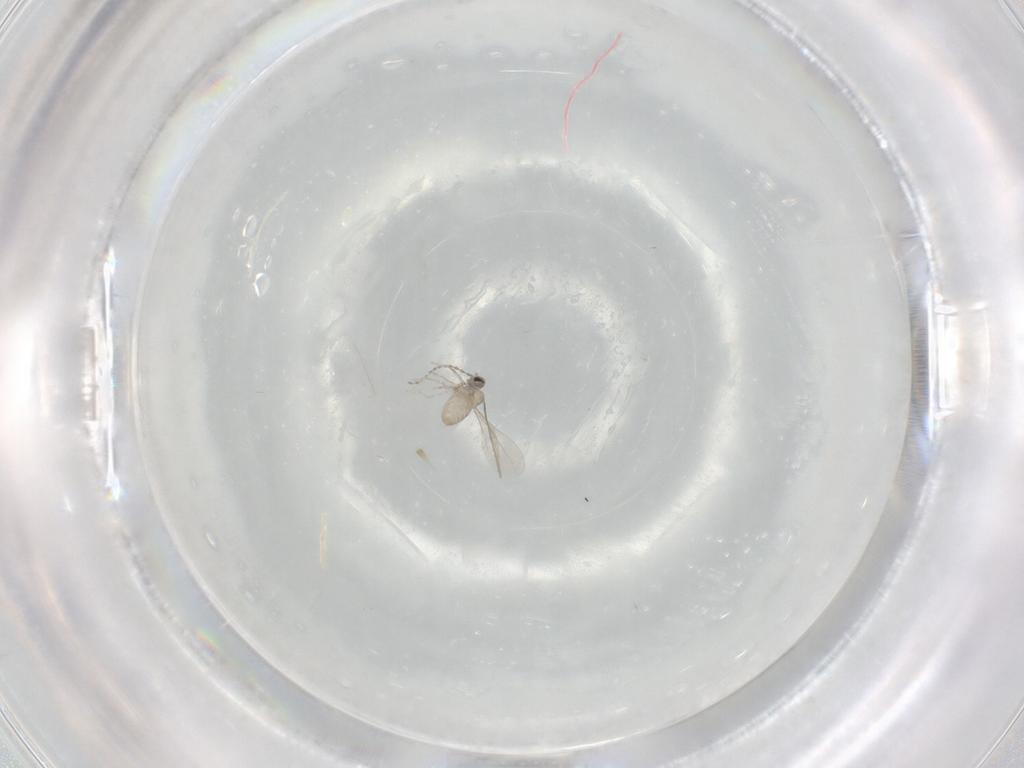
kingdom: Animalia
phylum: Arthropoda
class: Insecta
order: Diptera
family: Cecidomyiidae
